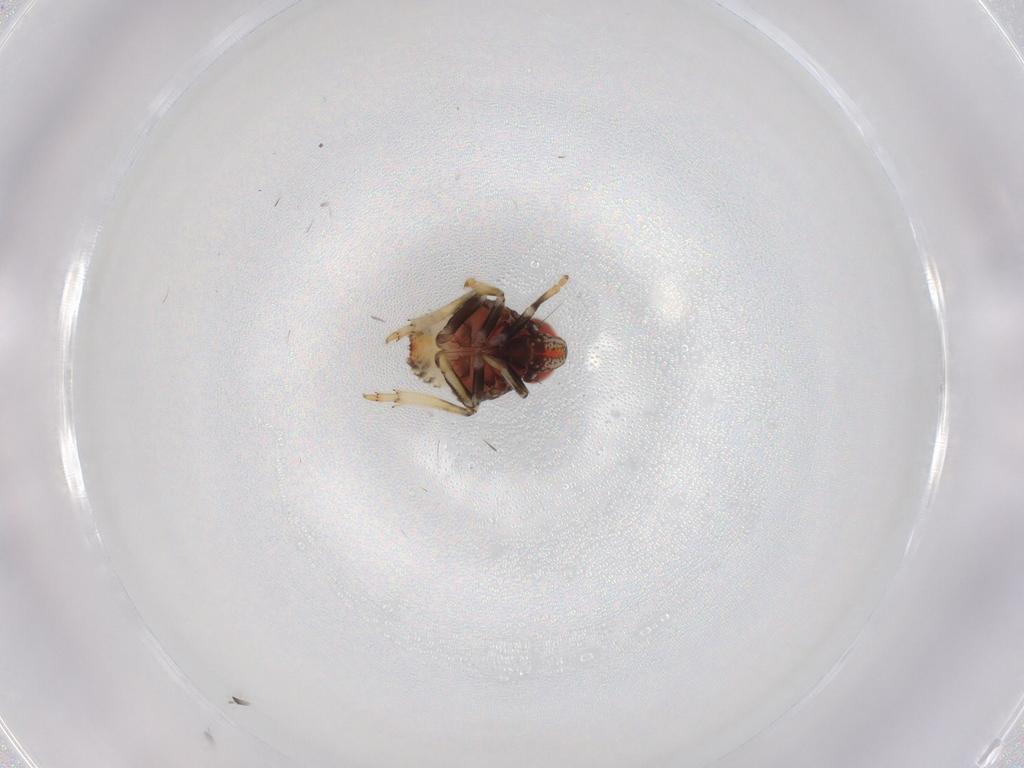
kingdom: Animalia
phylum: Arthropoda
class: Insecta
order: Hemiptera
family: Issidae
